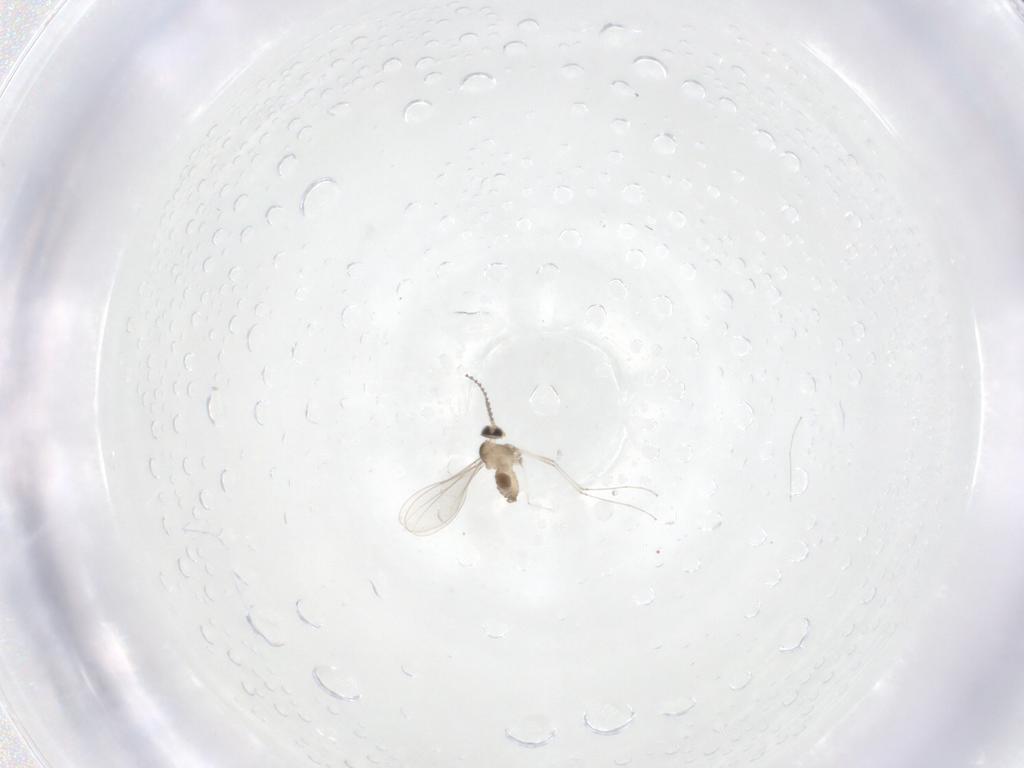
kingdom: Animalia
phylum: Arthropoda
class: Insecta
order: Diptera
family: Cecidomyiidae
